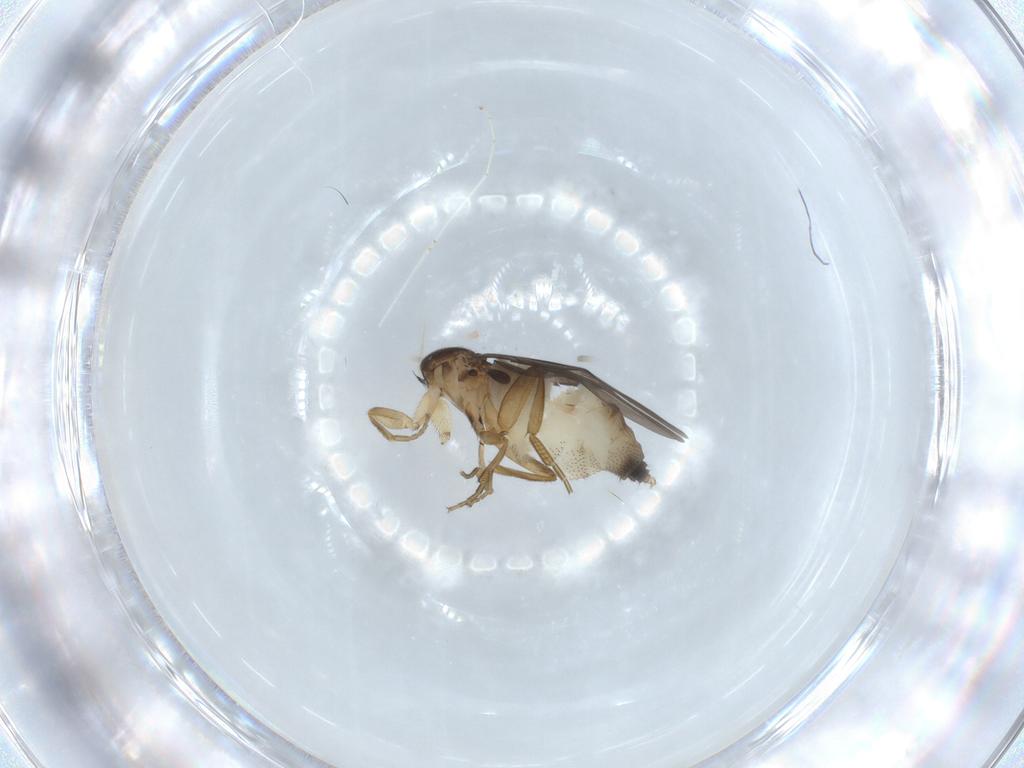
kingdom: Animalia
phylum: Arthropoda
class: Insecta
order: Diptera
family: Phoridae
